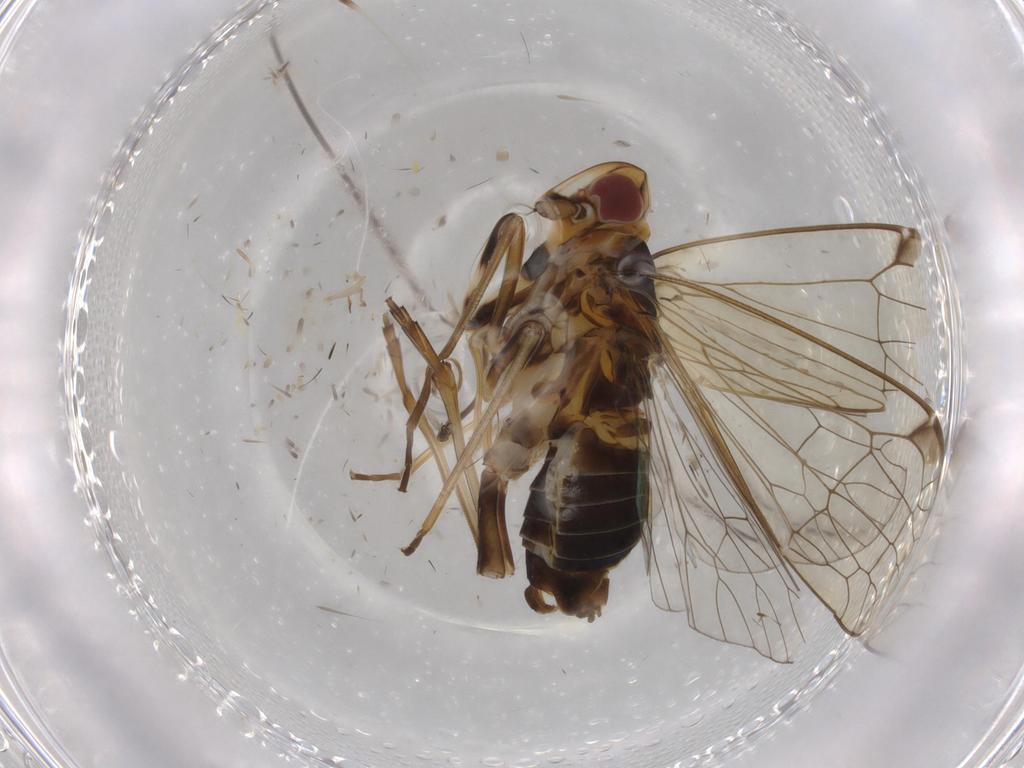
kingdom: Animalia
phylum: Arthropoda
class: Insecta
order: Hemiptera
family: Kinnaridae
